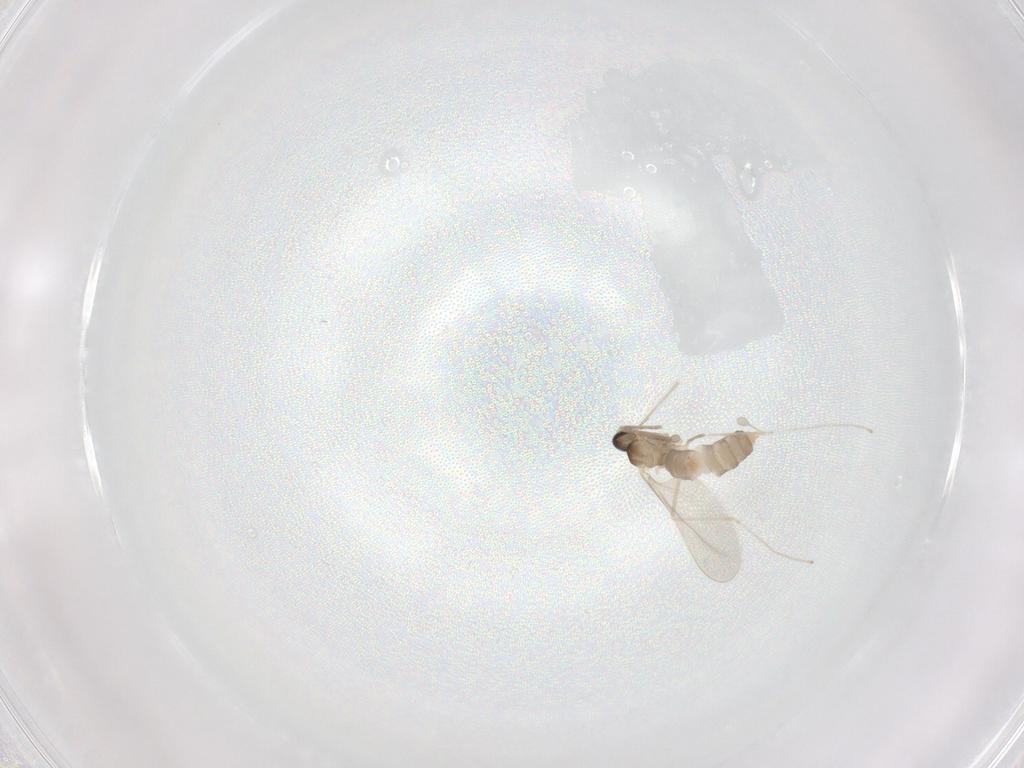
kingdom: Animalia
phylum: Arthropoda
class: Insecta
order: Diptera
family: Cecidomyiidae
